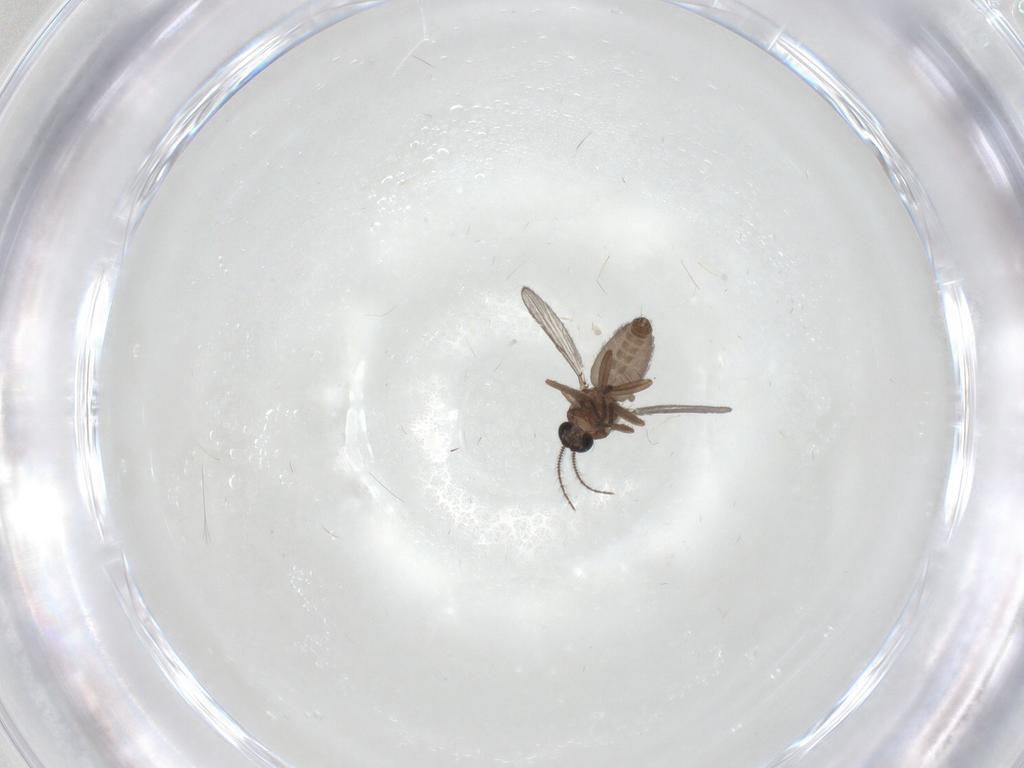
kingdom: Animalia
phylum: Arthropoda
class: Insecta
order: Diptera
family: Ceratopogonidae
